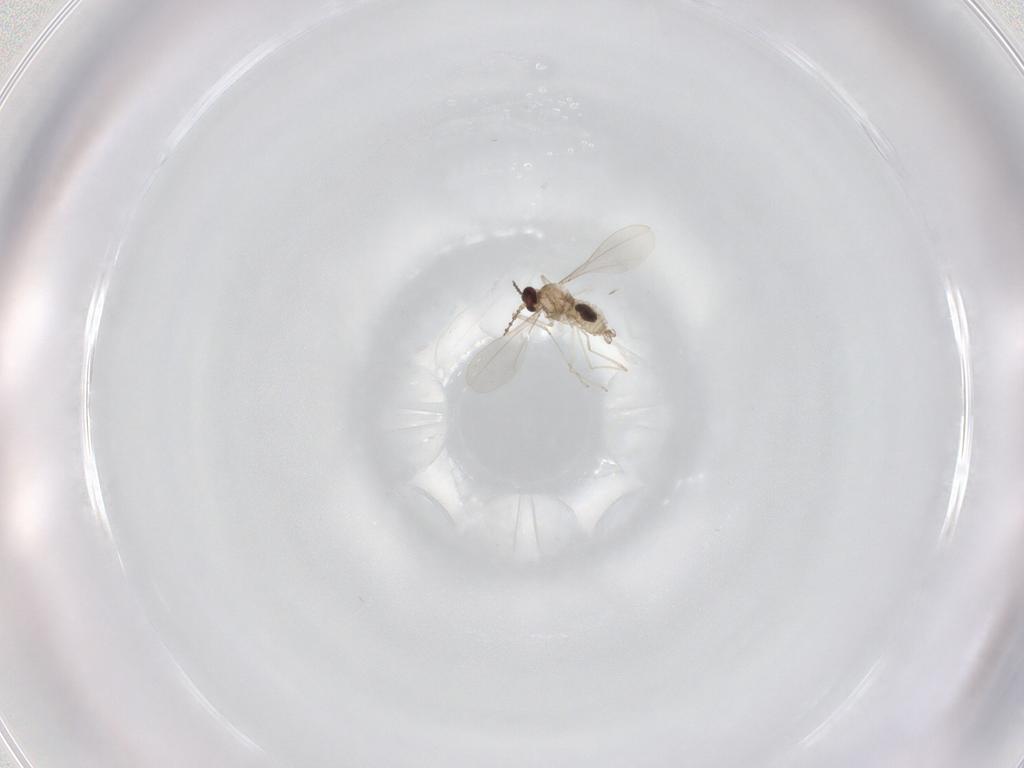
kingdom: Animalia
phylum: Arthropoda
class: Insecta
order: Diptera
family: Cecidomyiidae
